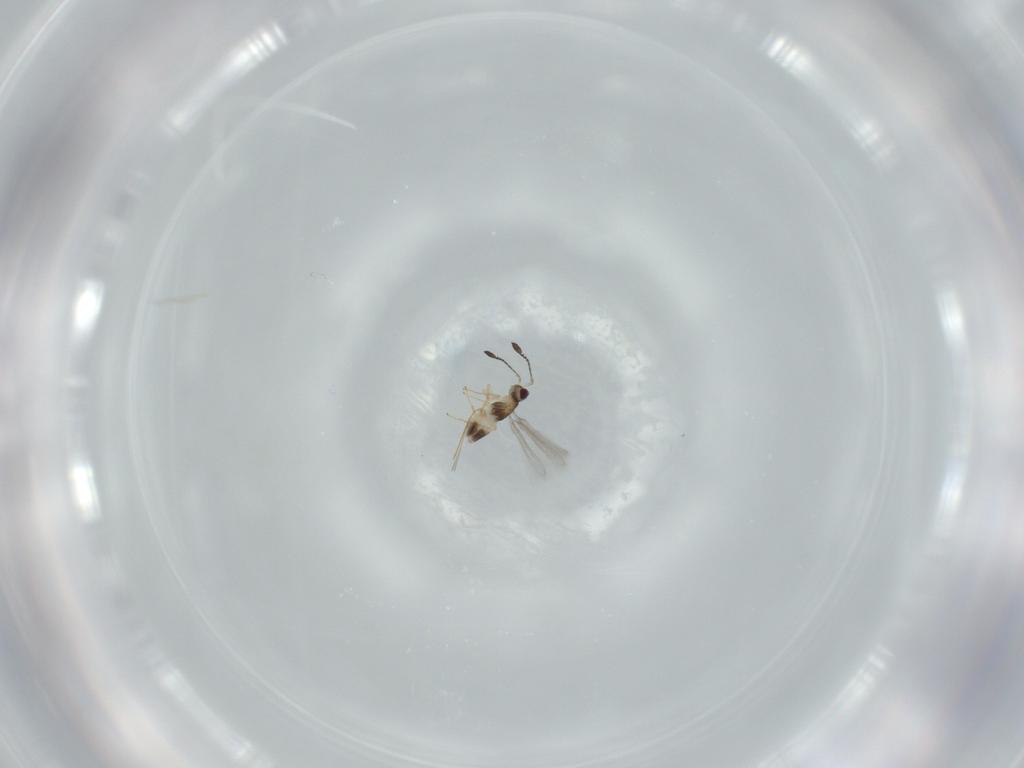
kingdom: Animalia
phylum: Arthropoda
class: Insecta
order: Hymenoptera
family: Mymaridae
